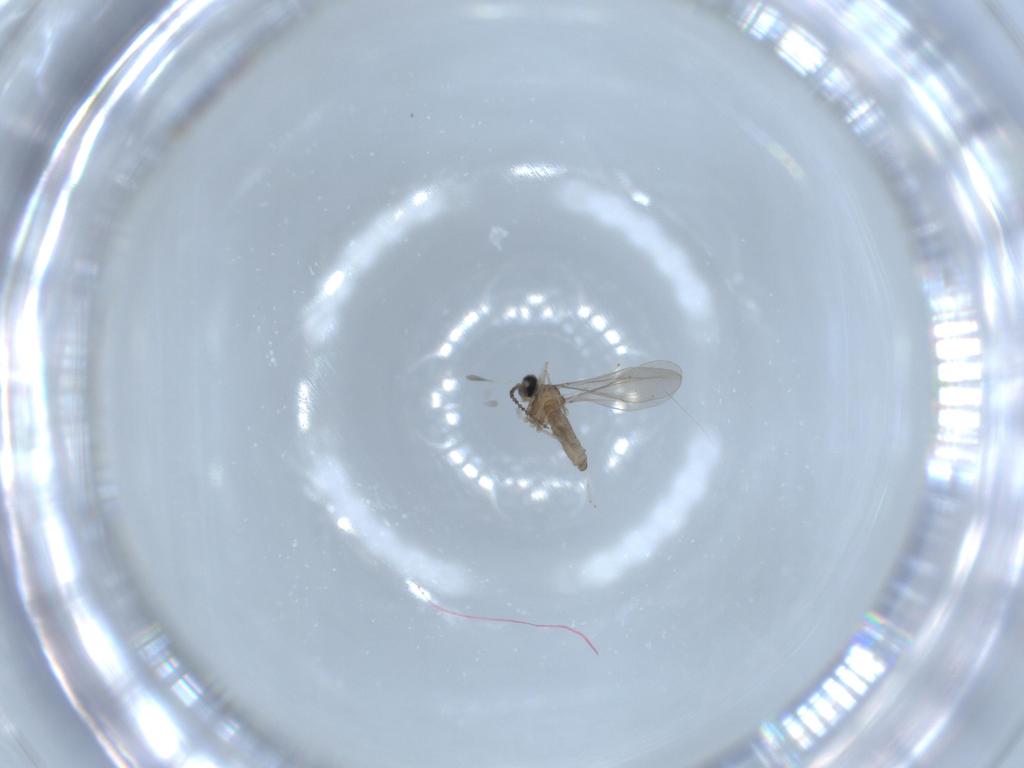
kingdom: Animalia
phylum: Arthropoda
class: Insecta
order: Diptera
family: Cecidomyiidae
